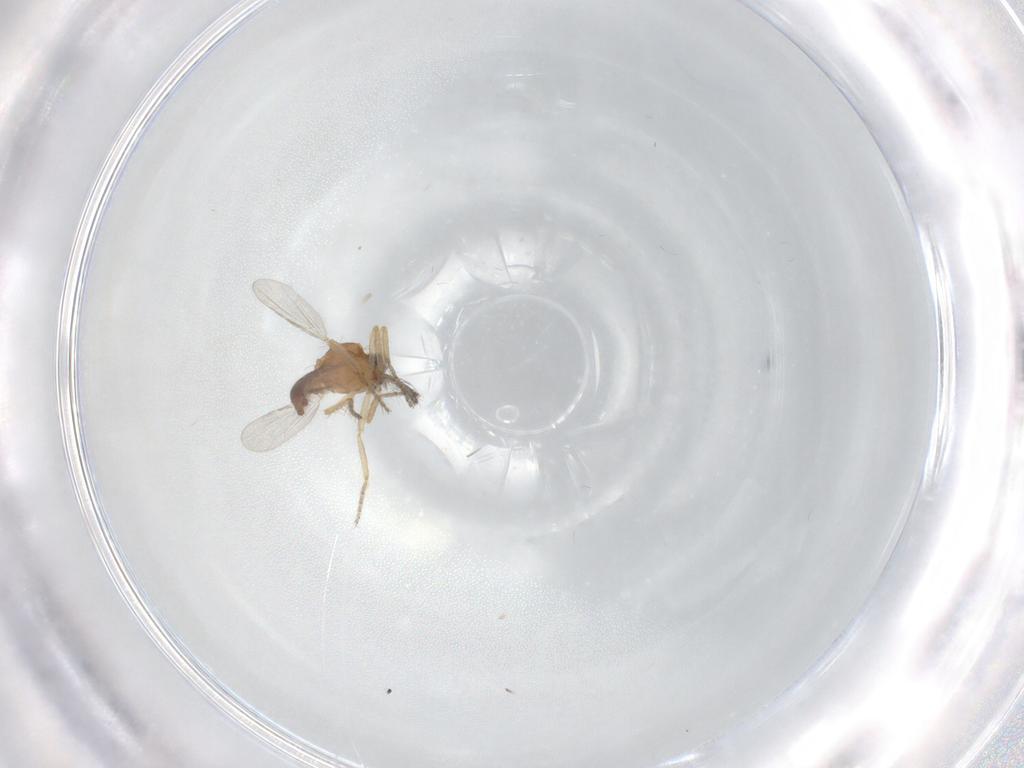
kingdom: Animalia
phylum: Arthropoda
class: Insecta
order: Diptera
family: Ceratopogonidae
